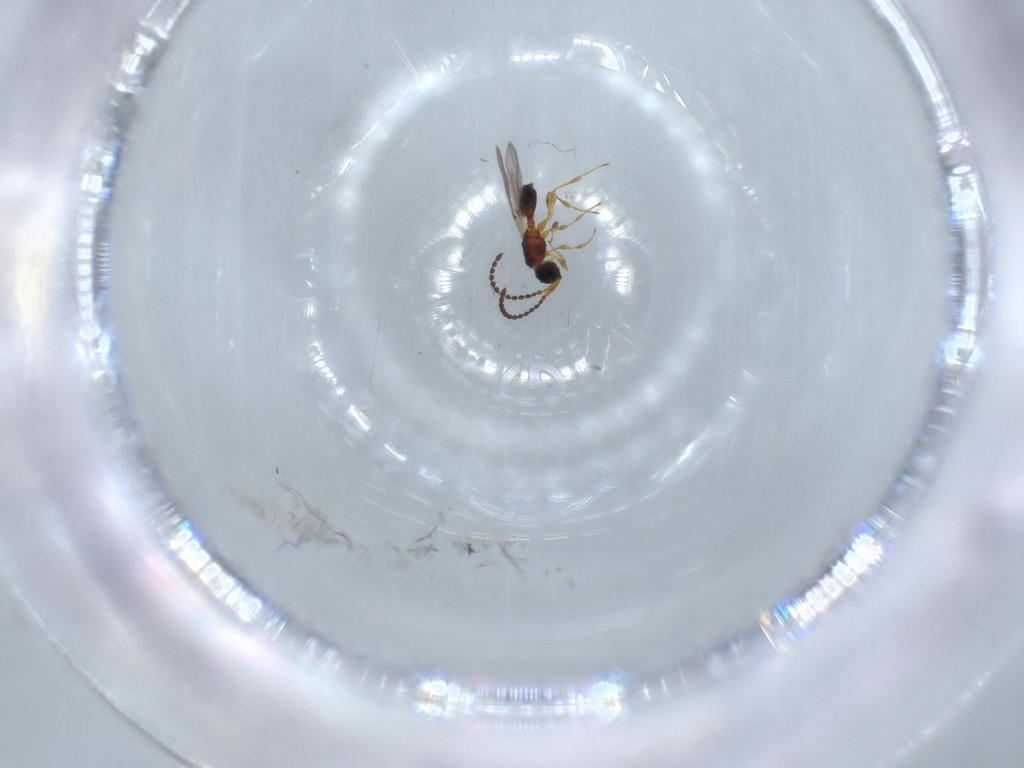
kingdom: Animalia
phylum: Arthropoda
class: Insecta
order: Hymenoptera
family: Diapriidae
